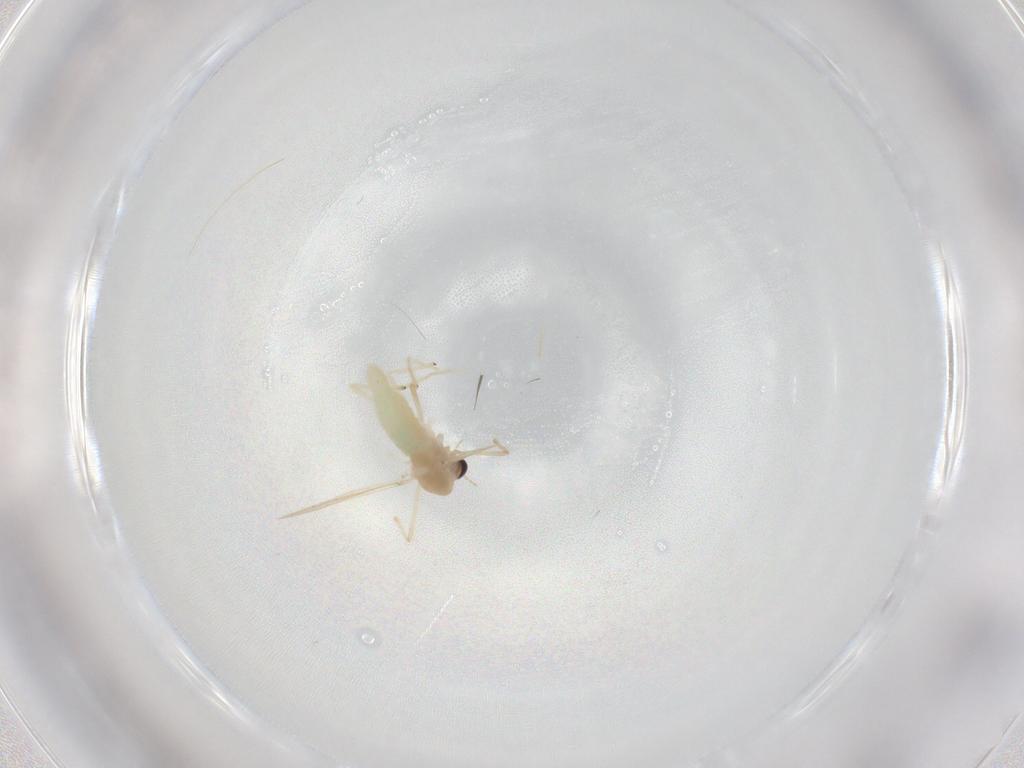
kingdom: Animalia
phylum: Arthropoda
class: Insecta
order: Diptera
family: Chironomidae
